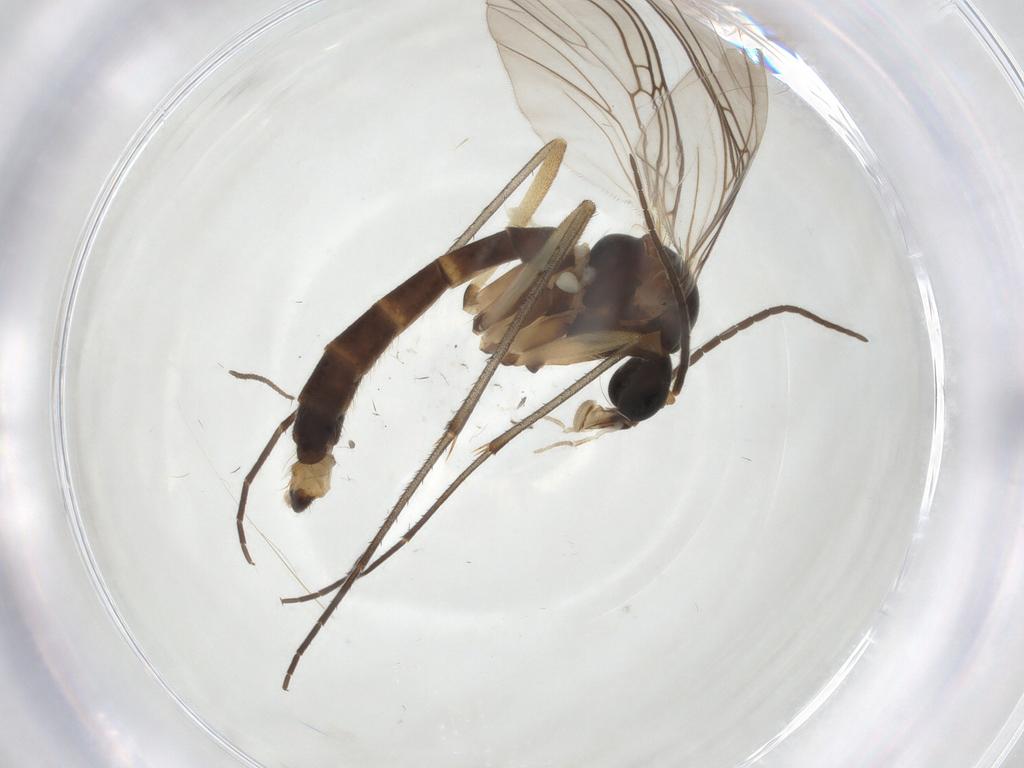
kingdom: Animalia
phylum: Arthropoda
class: Insecta
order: Diptera
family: Mycetophilidae
